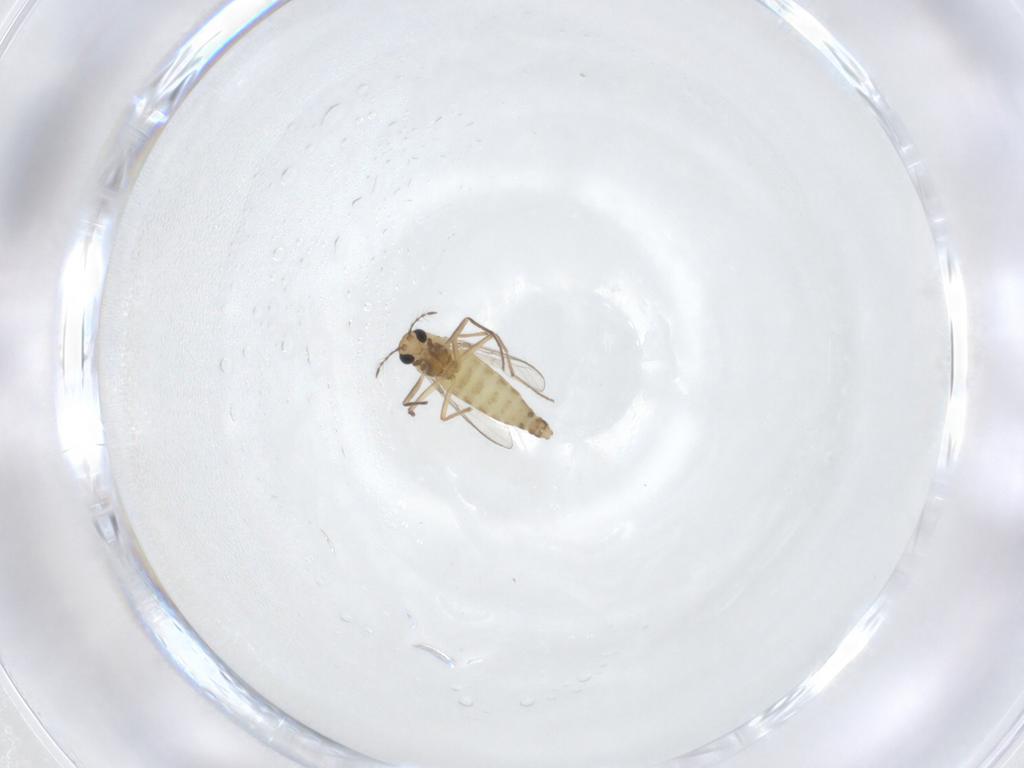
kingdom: Animalia
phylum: Arthropoda
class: Insecta
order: Diptera
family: Chironomidae
